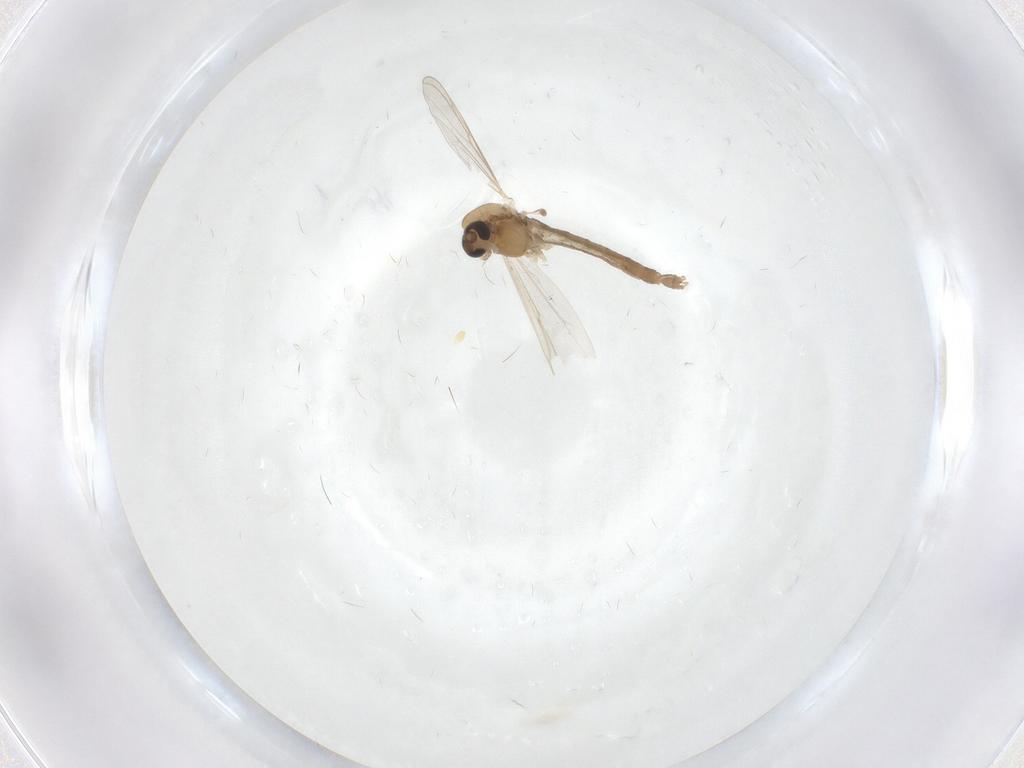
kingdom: Animalia
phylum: Arthropoda
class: Insecta
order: Diptera
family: Chironomidae
